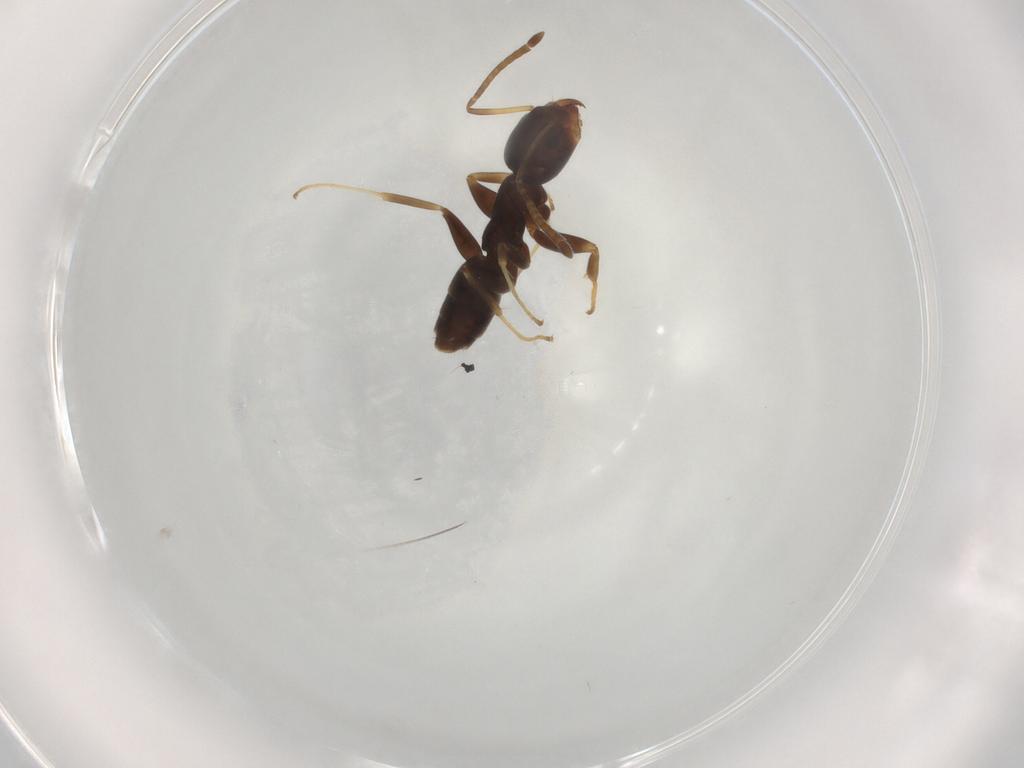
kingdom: Animalia
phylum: Arthropoda
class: Insecta
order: Hymenoptera
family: Formicidae
